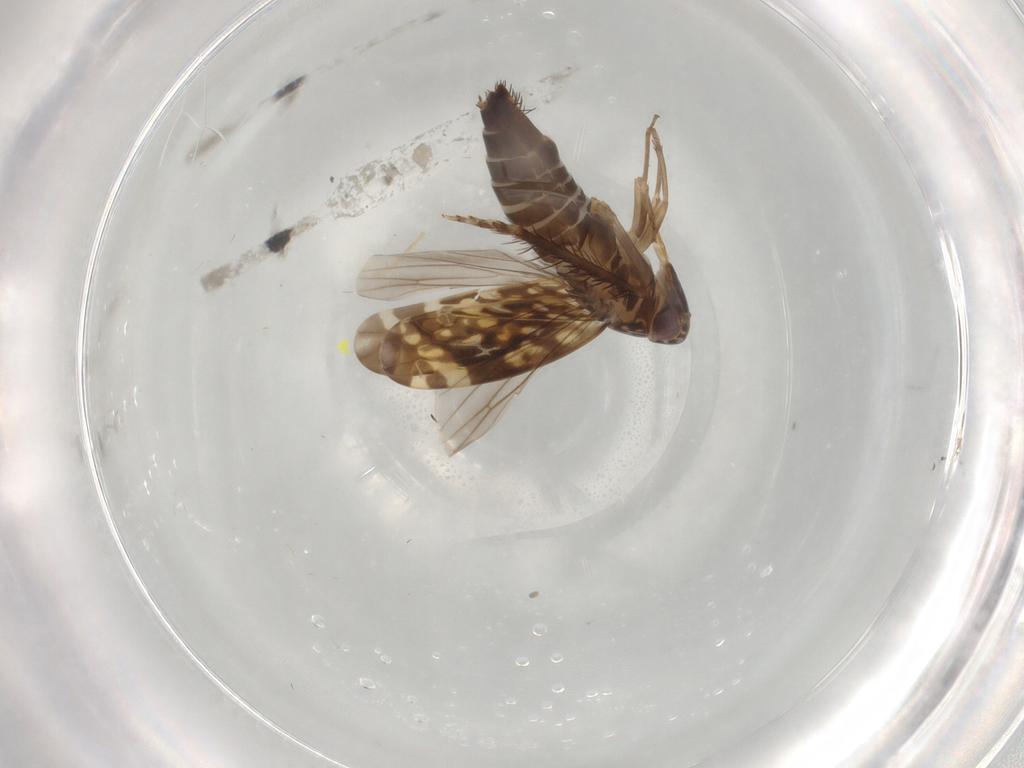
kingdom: Animalia
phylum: Arthropoda
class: Insecta
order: Hemiptera
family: Cicadellidae
